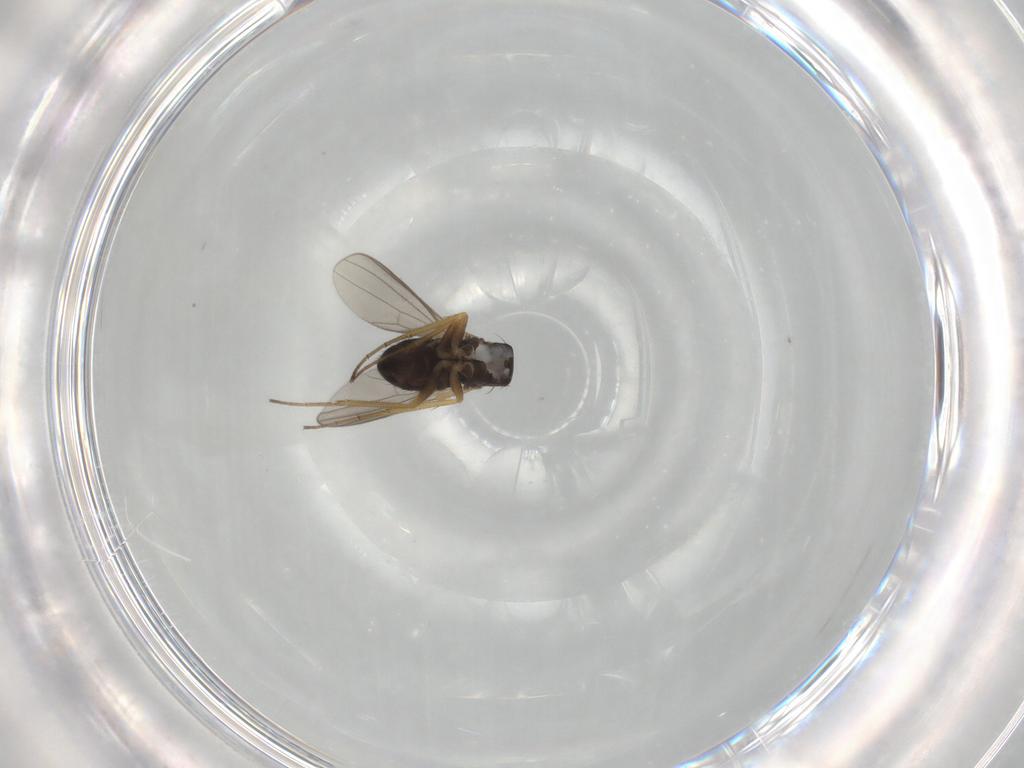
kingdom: Animalia
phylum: Arthropoda
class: Insecta
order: Diptera
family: Dolichopodidae
